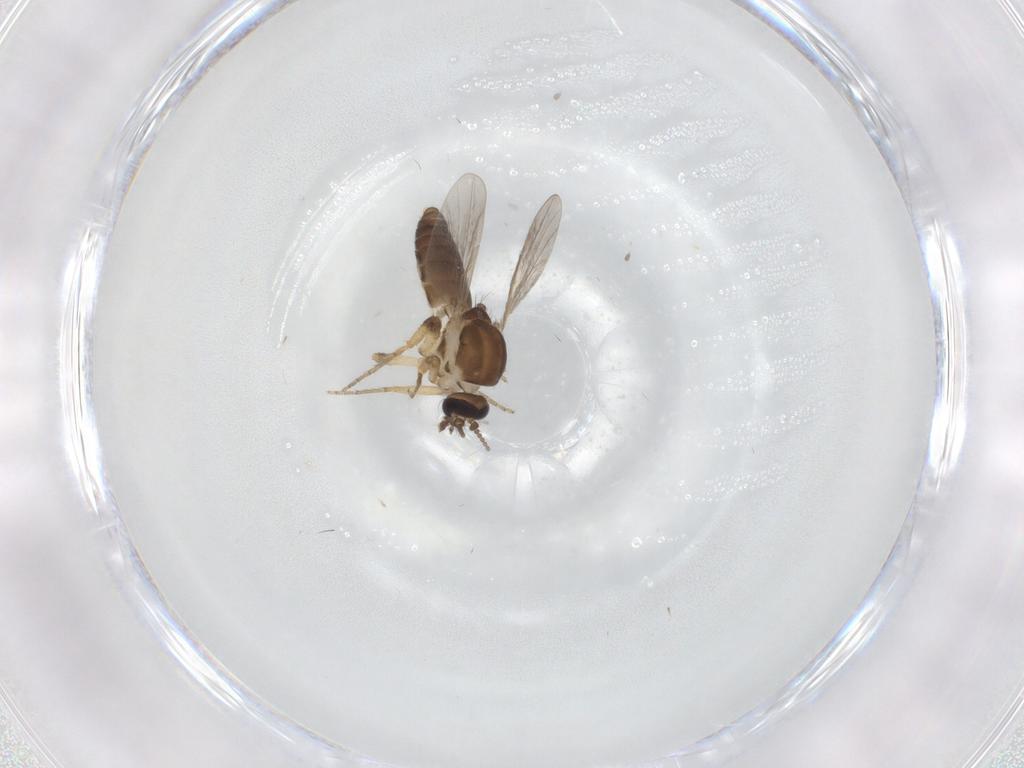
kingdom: Animalia
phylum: Arthropoda
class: Insecta
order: Diptera
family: Ceratopogonidae
